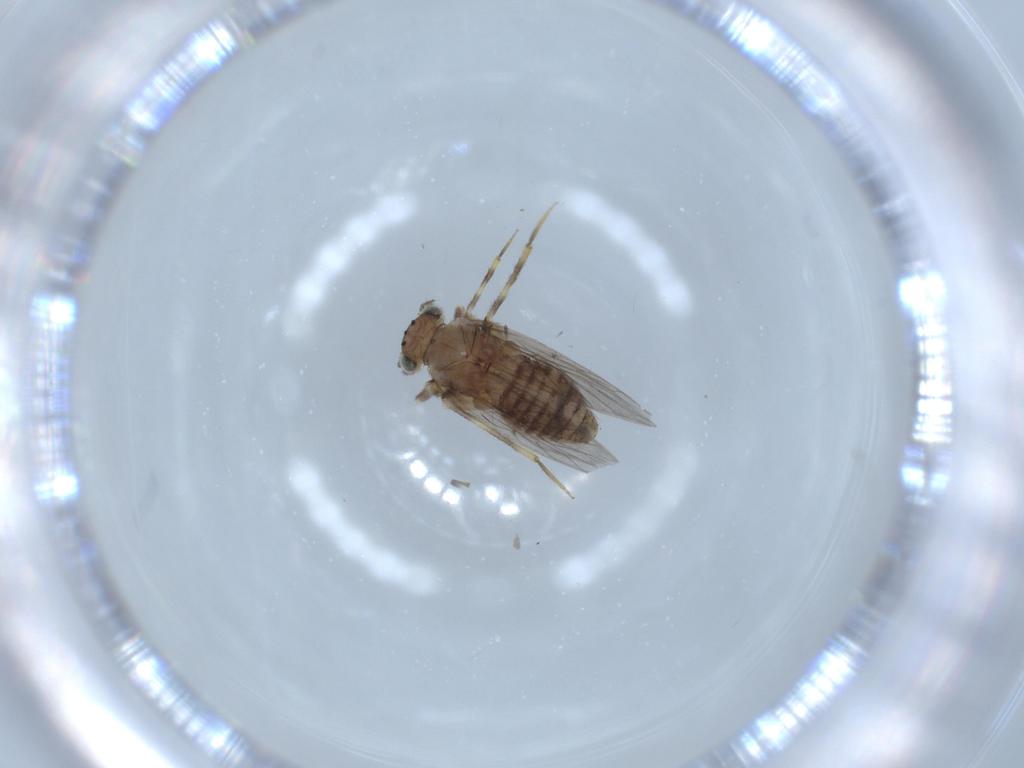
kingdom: Animalia
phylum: Arthropoda
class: Insecta
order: Psocodea
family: Lepidopsocidae
